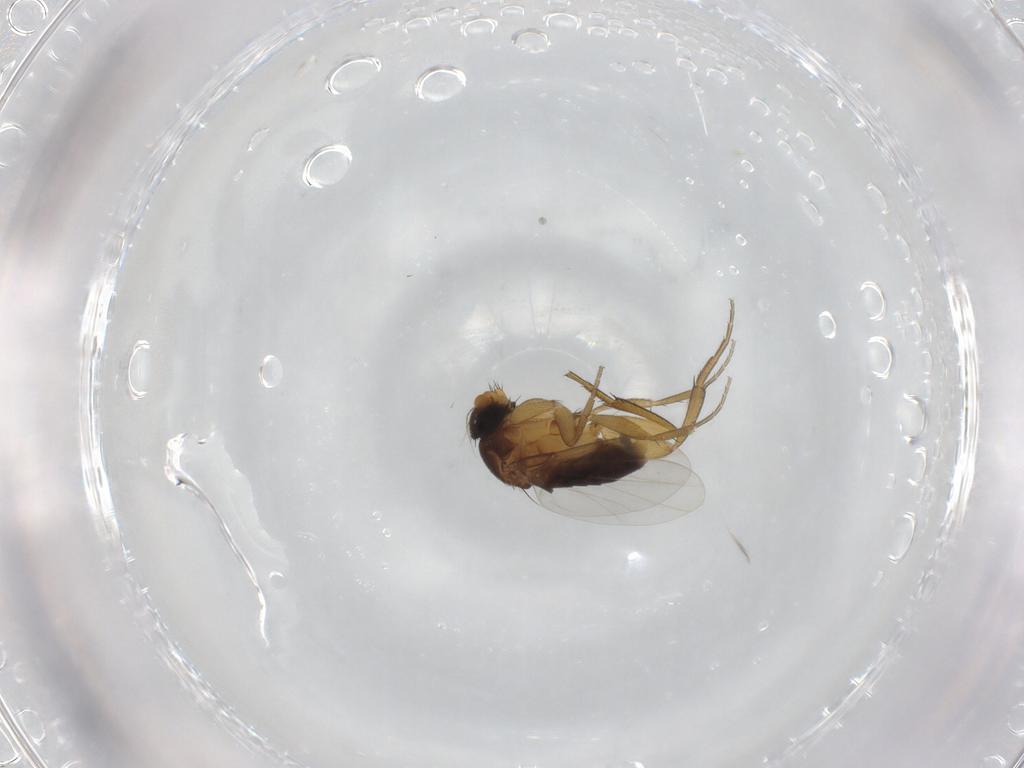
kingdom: Animalia
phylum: Arthropoda
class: Insecta
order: Diptera
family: Phoridae
